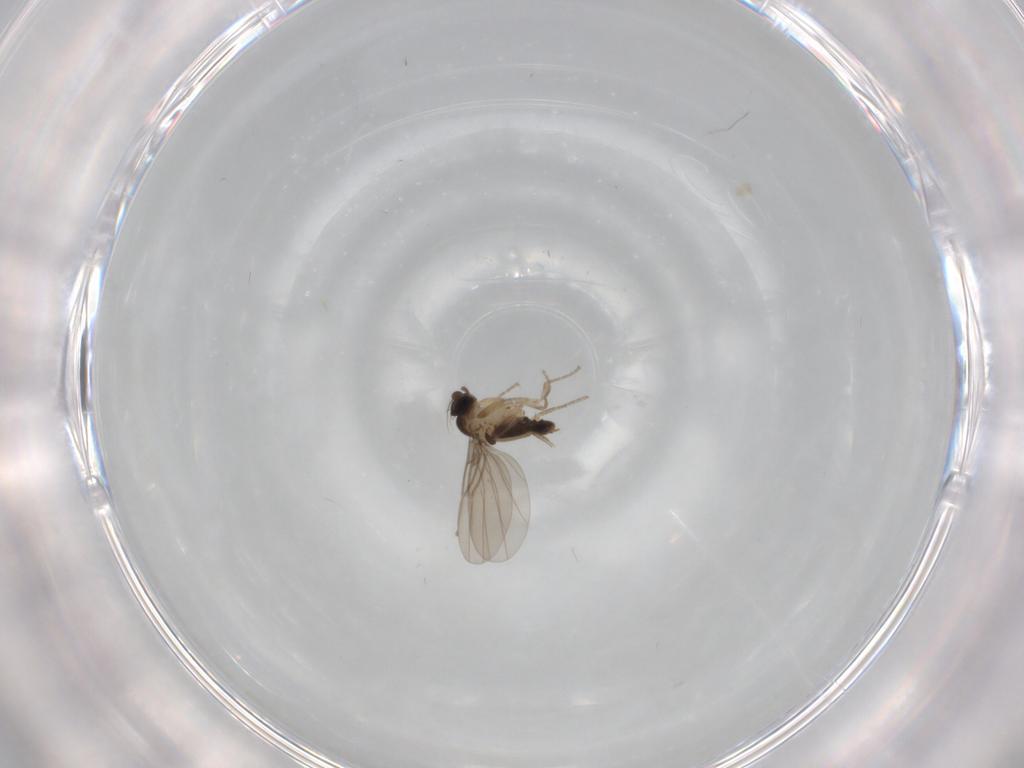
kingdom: Animalia
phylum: Arthropoda
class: Insecta
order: Diptera
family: Phoridae
